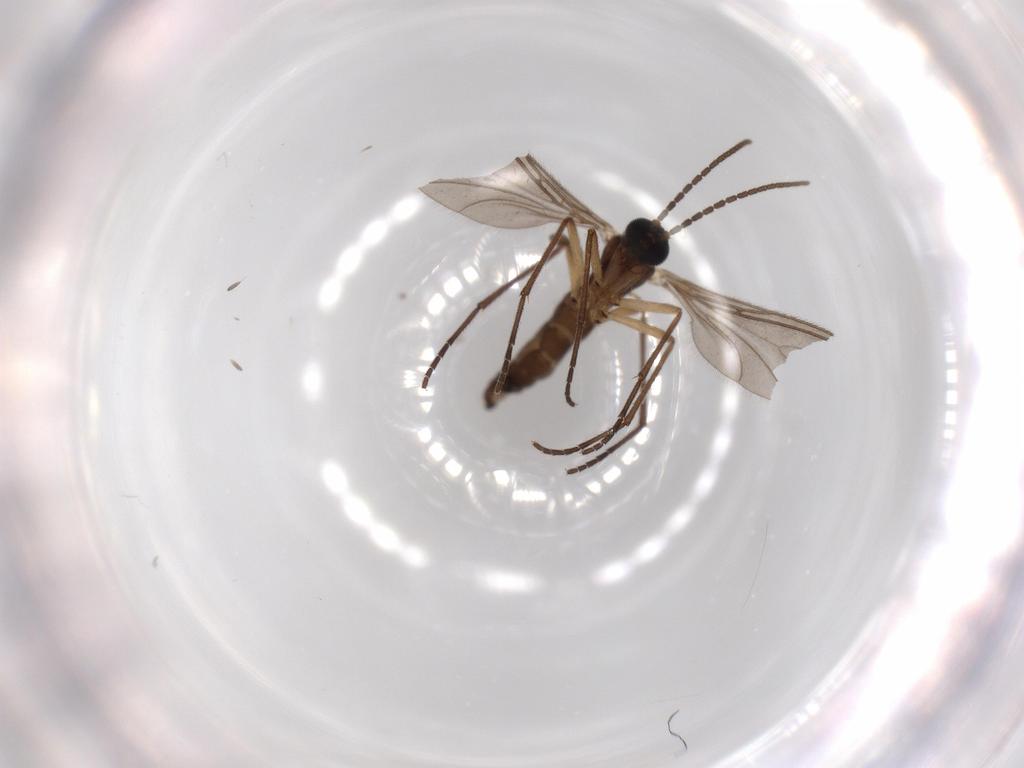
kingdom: Animalia
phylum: Arthropoda
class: Insecta
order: Diptera
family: Sciaridae
